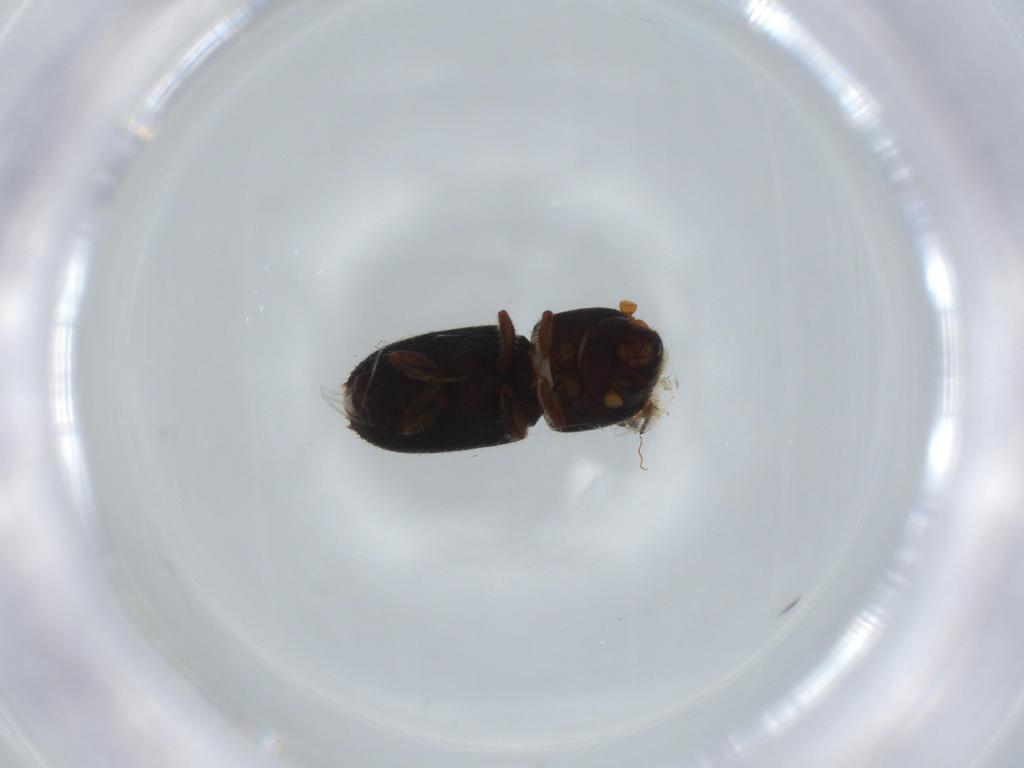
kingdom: Animalia
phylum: Arthropoda
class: Insecta
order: Coleoptera
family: Curculionidae
